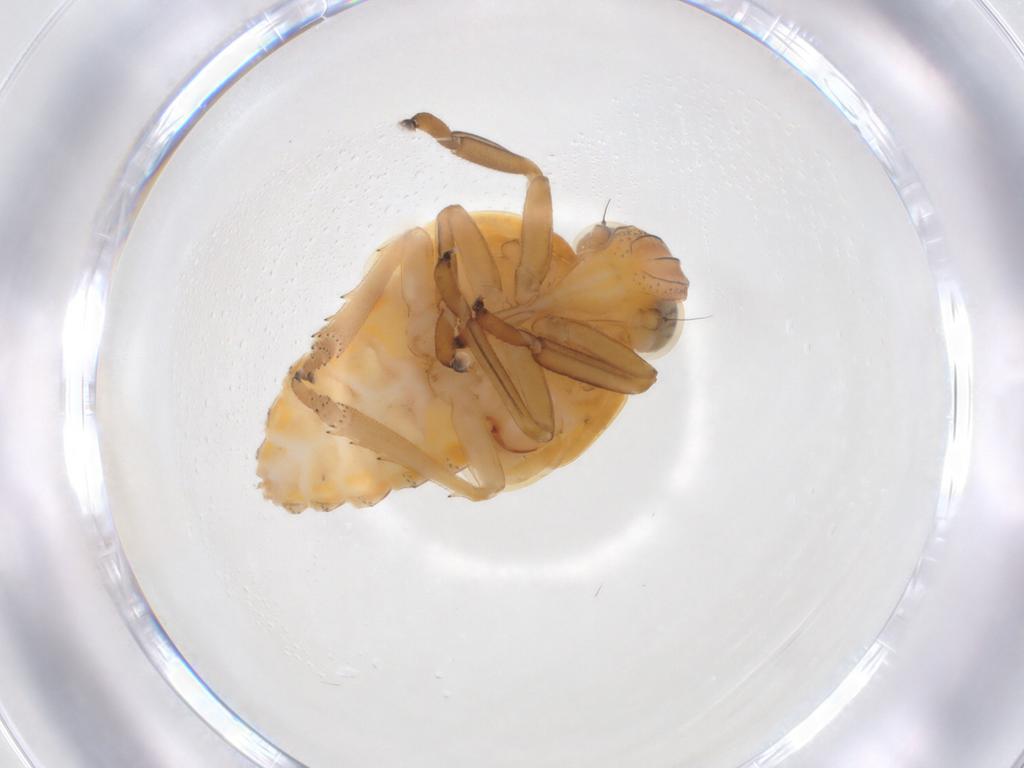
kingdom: Animalia
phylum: Arthropoda
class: Insecta
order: Hemiptera
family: Issidae
